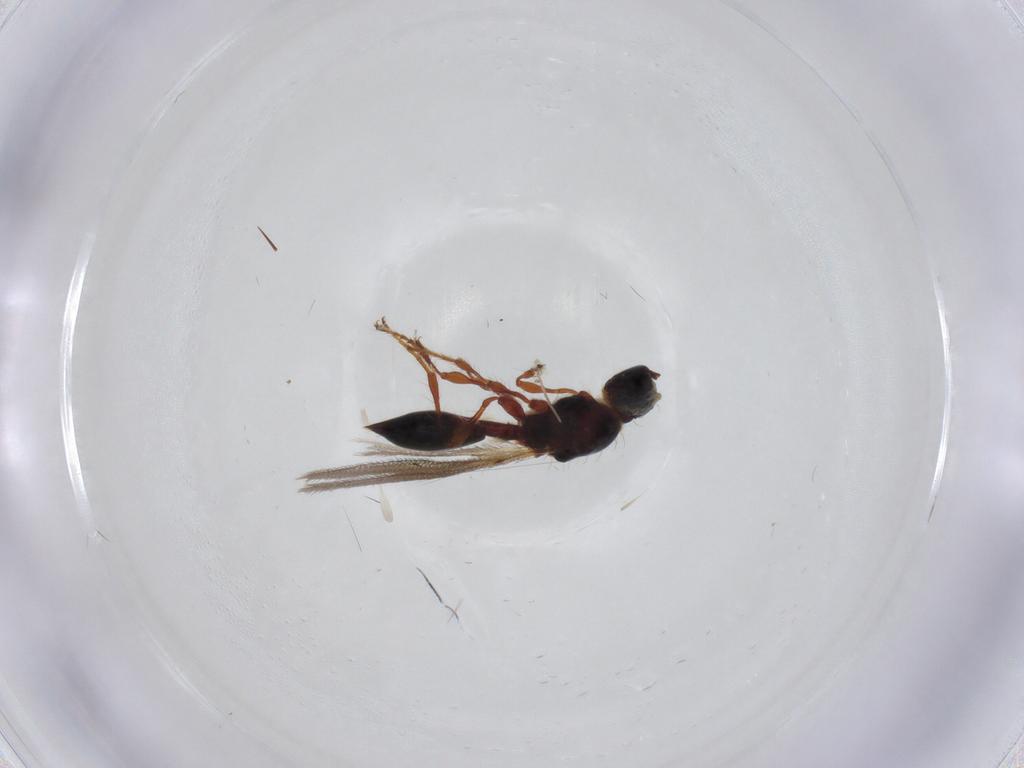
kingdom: Animalia
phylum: Arthropoda
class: Insecta
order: Hymenoptera
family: Diapriidae
